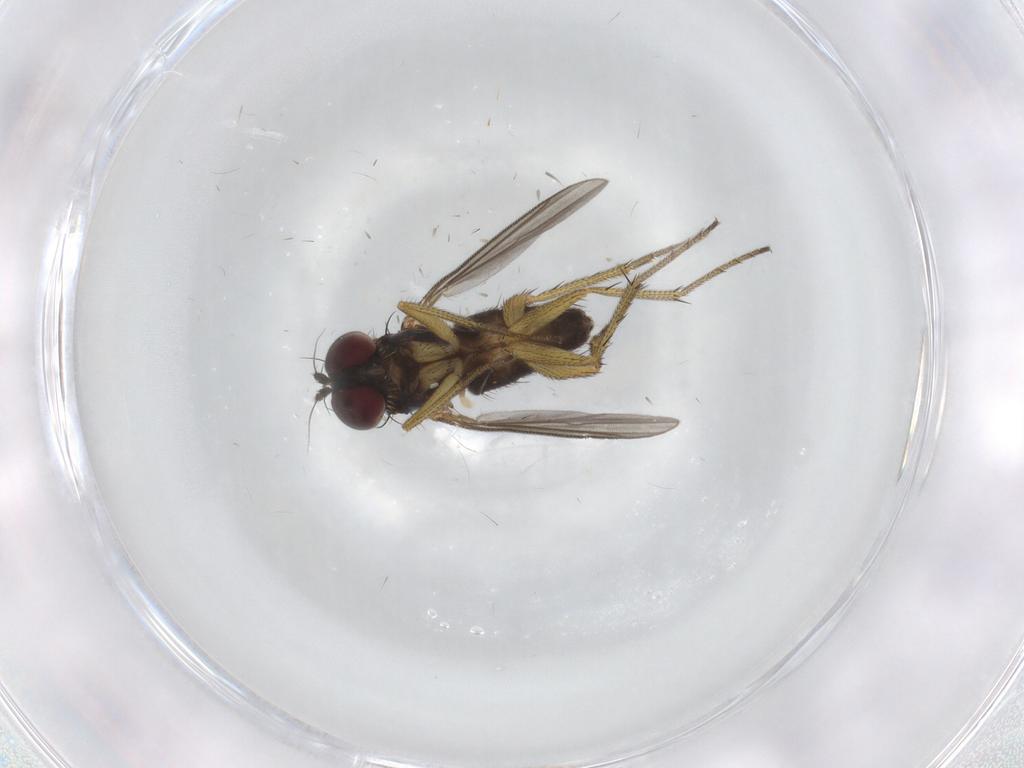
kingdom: Animalia
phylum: Arthropoda
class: Insecta
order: Diptera
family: Dolichopodidae
